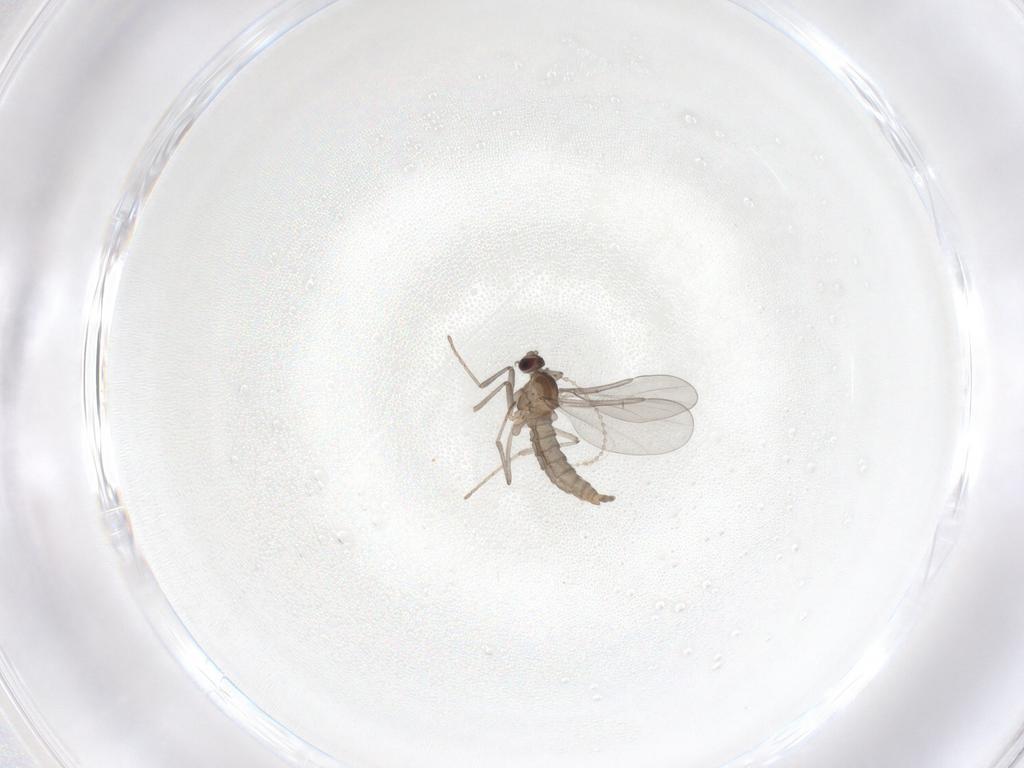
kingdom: Animalia
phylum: Arthropoda
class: Insecta
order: Diptera
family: Cecidomyiidae
